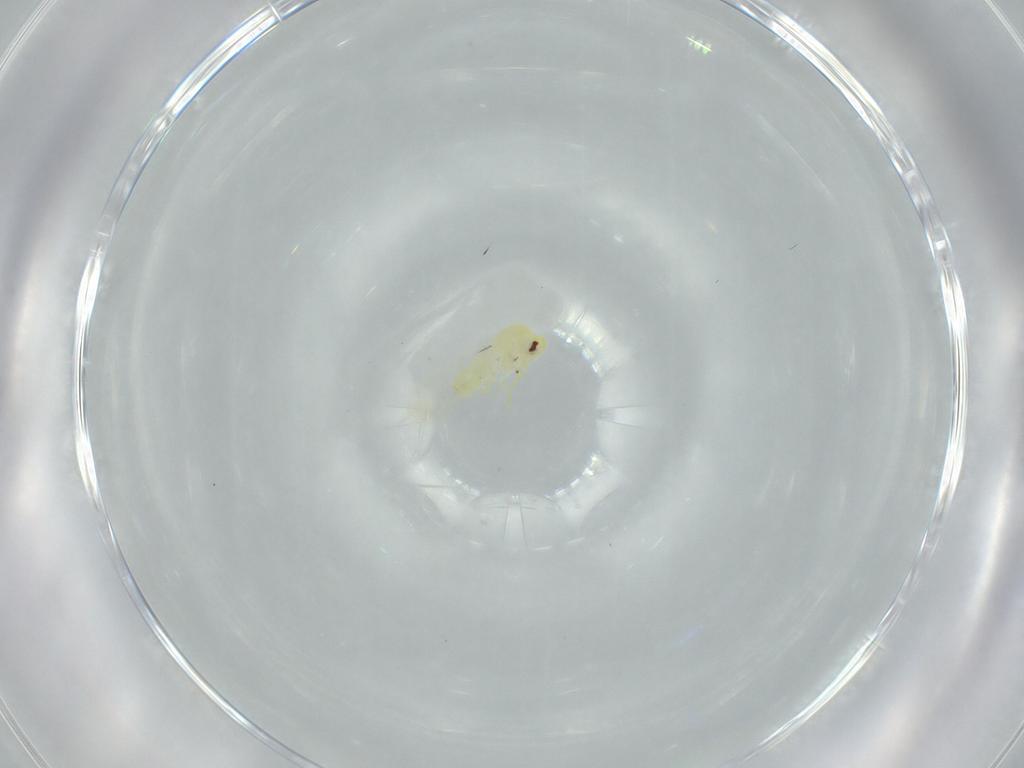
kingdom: Animalia
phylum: Arthropoda
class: Insecta
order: Hemiptera
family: Aleyrodidae
